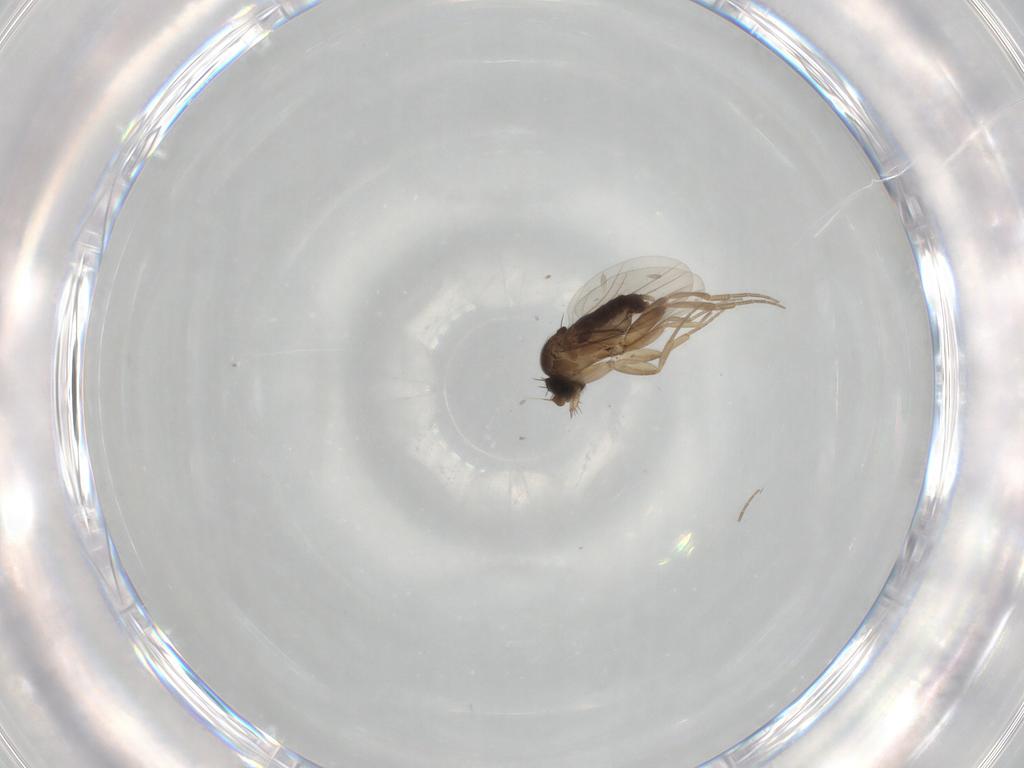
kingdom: Animalia
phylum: Arthropoda
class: Insecta
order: Diptera
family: Phoridae
